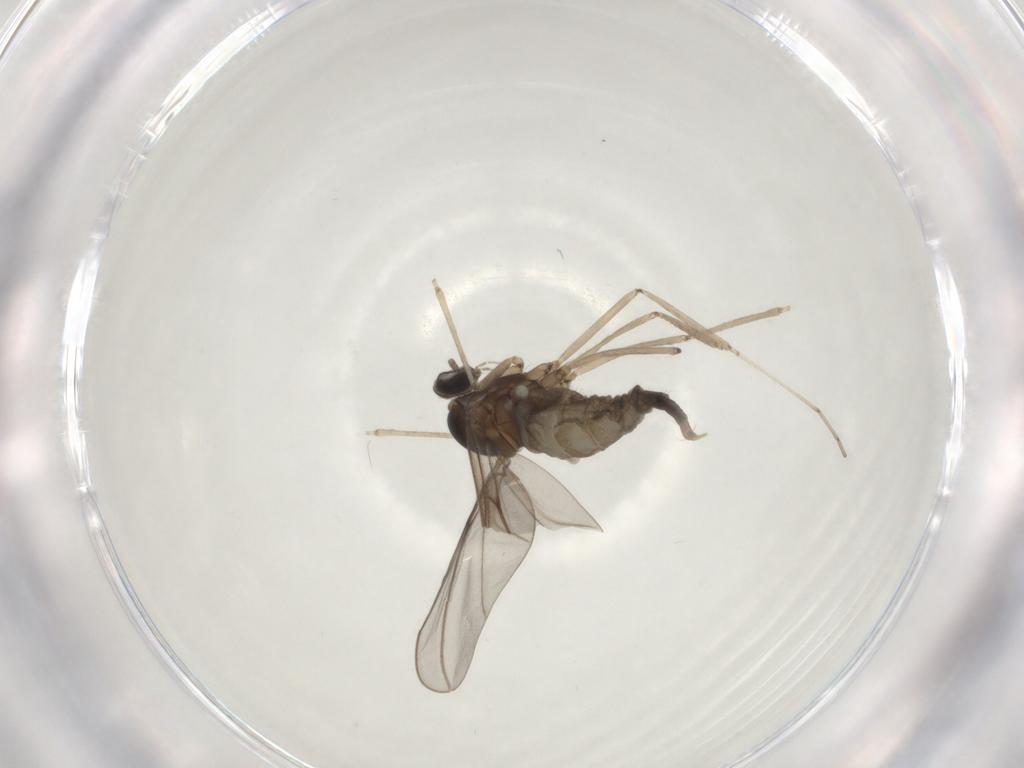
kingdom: Animalia
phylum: Arthropoda
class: Insecta
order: Diptera
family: Cecidomyiidae
